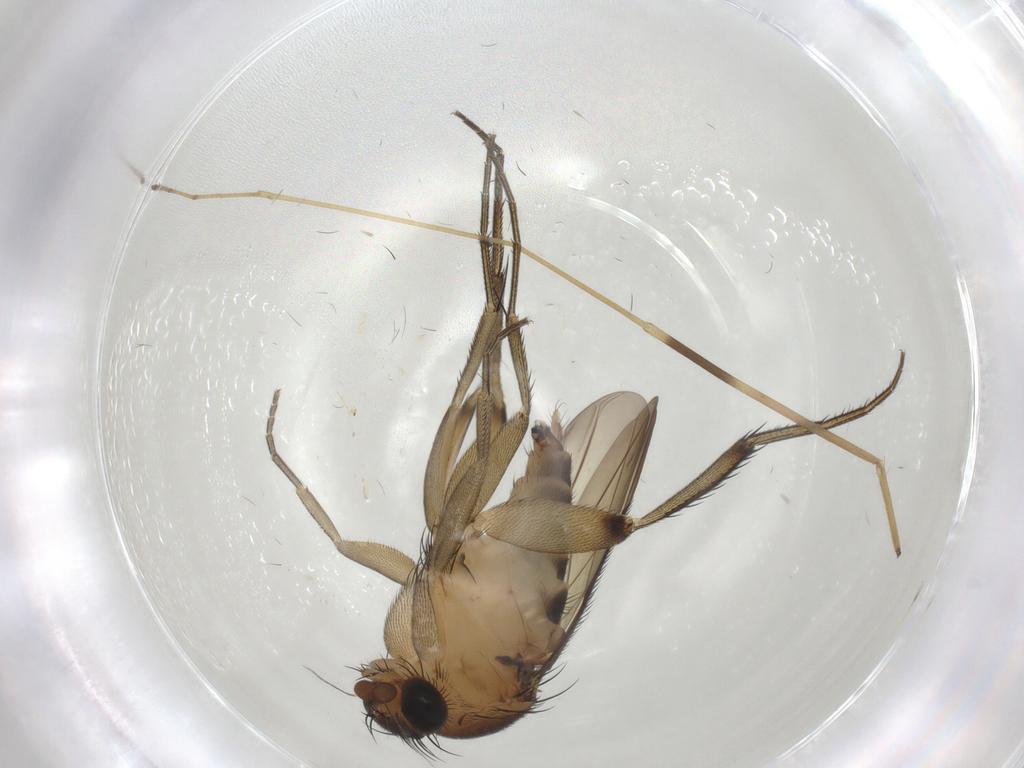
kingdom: Animalia
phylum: Arthropoda
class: Insecta
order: Diptera
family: Phoridae
